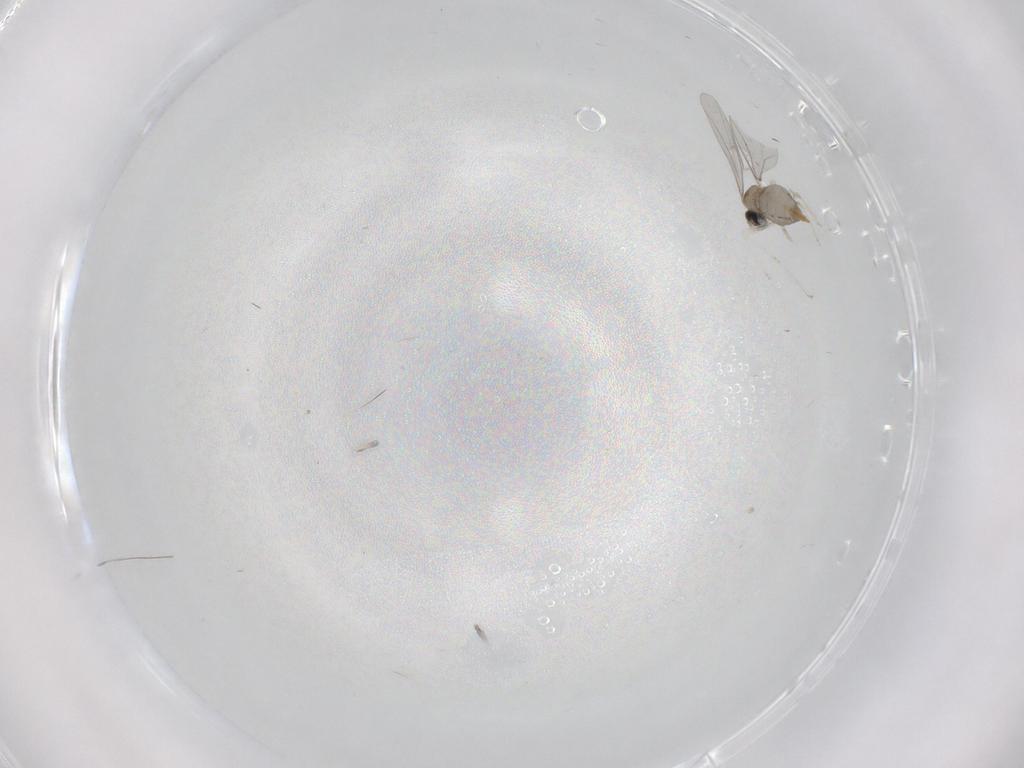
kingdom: Animalia
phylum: Arthropoda
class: Insecta
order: Diptera
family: Cecidomyiidae
